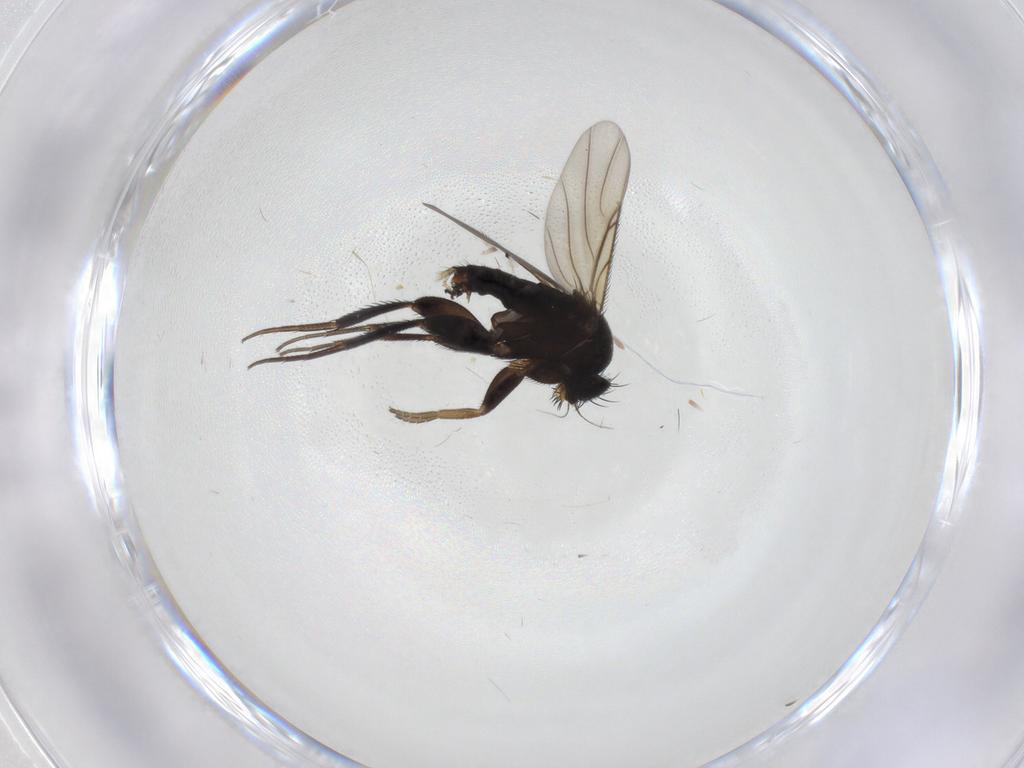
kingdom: Animalia
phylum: Arthropoda
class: Insecta
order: Diptera
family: Phoridae
